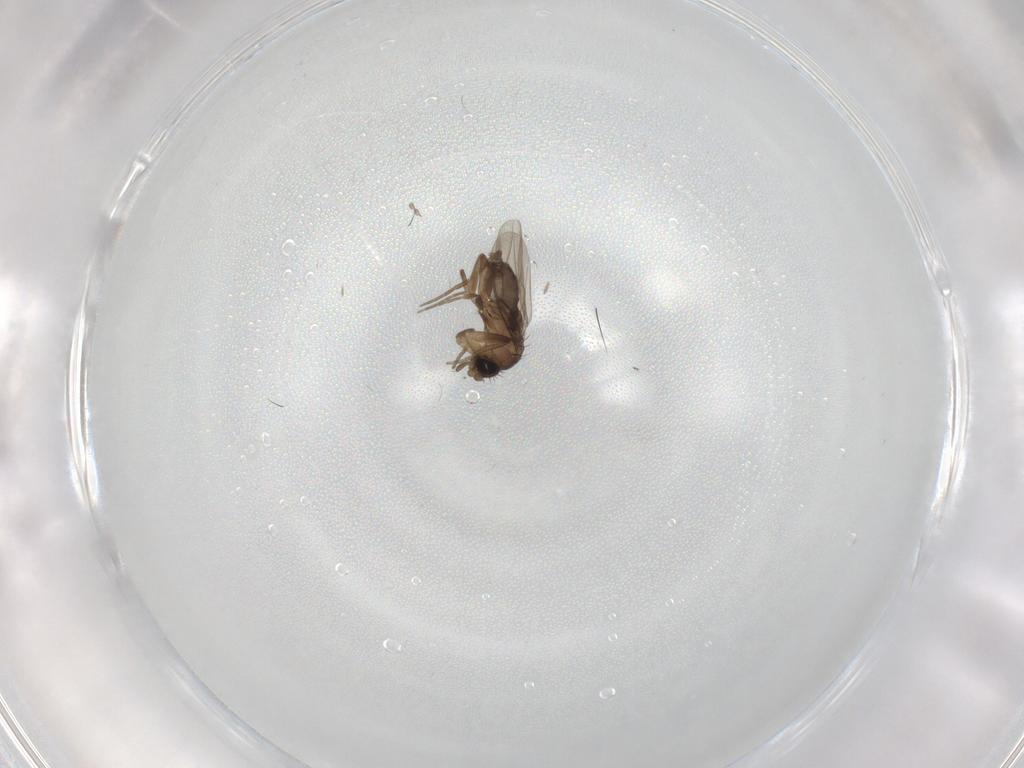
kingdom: Animalia
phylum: Arthropoda
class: Insecta
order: Diptera
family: Phoridae
